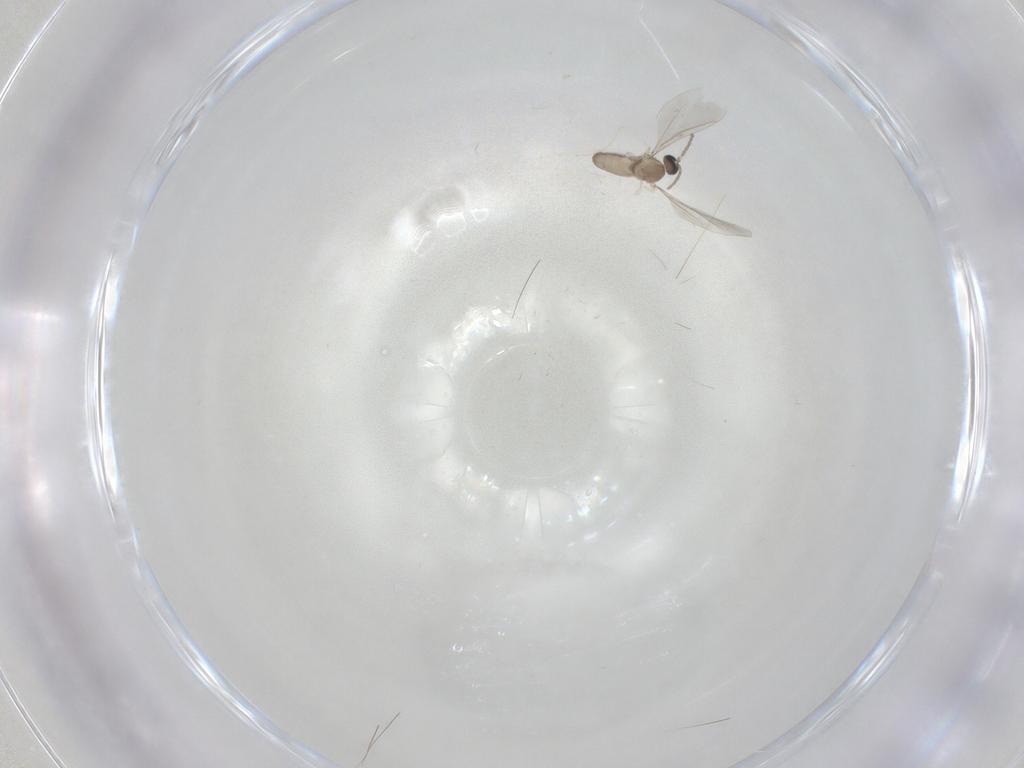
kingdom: Animalia
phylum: Arthropoda
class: Insecta
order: Diptera
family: Cecidomyiidae
